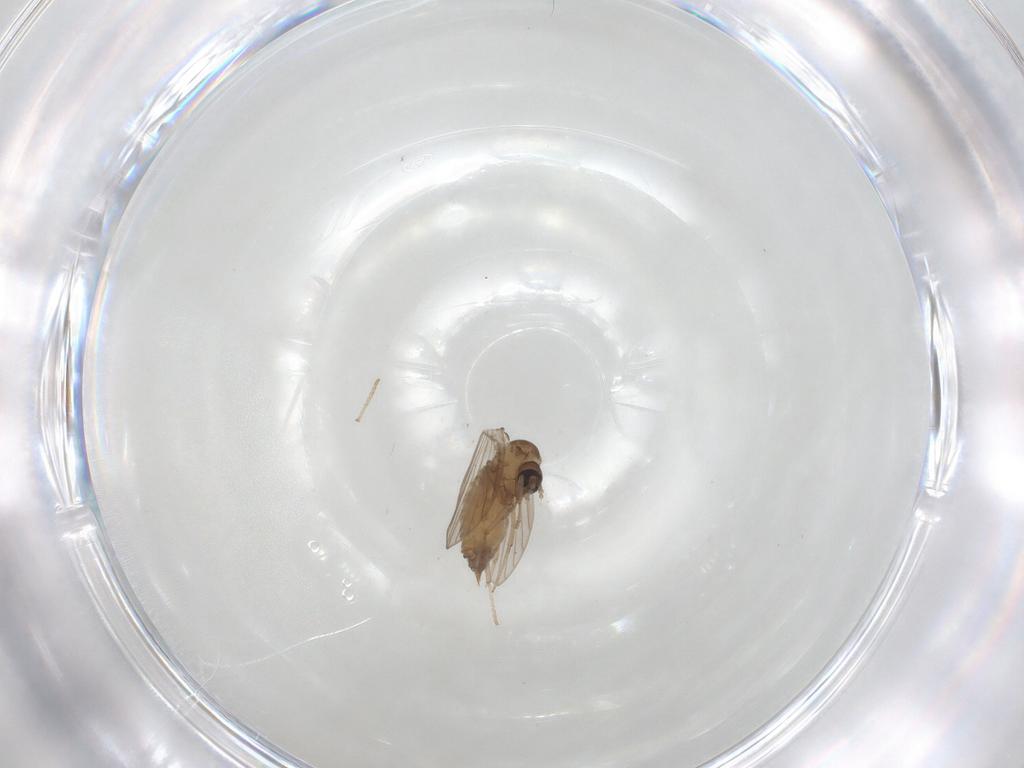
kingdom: Animalia
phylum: Arthropoda
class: Insecta
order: Diptera
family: Psychodidae
